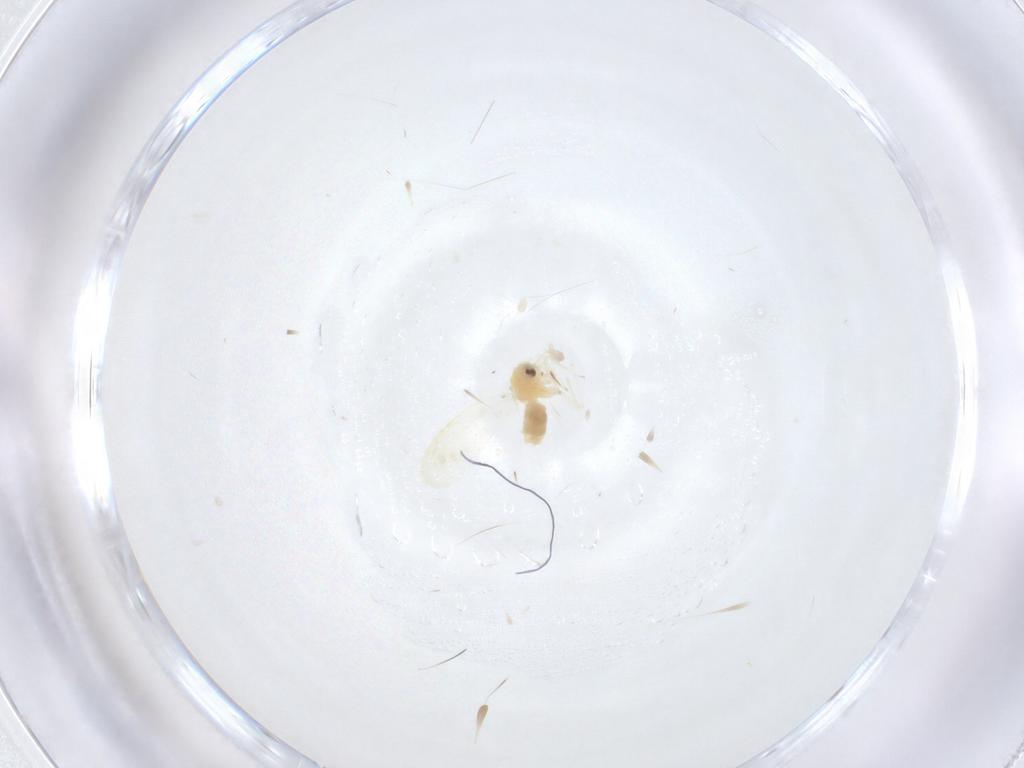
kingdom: Animalia
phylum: Arthropoda
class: Insecta
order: Hemiptera
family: Aleyrodidae
